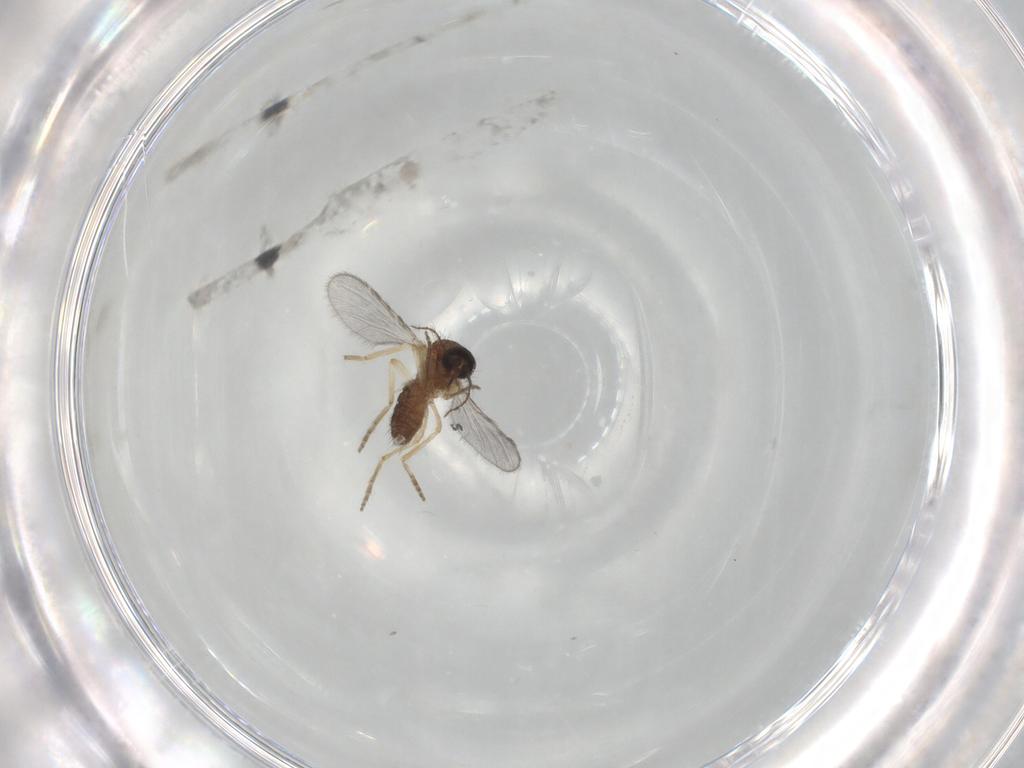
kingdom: Animalia
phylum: Arthropoda
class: Insecta
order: Diptera
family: Ceratopogonidae
